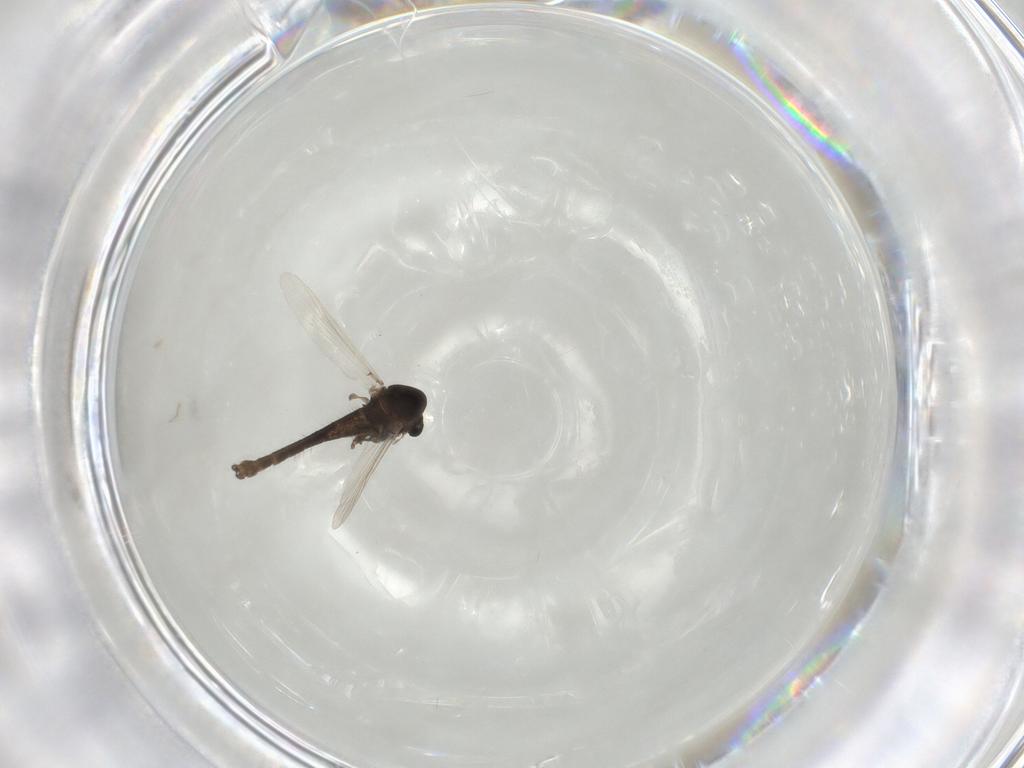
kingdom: Animalia
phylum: Arthropoda
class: Insecta
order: Diptera
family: Chironomidae
